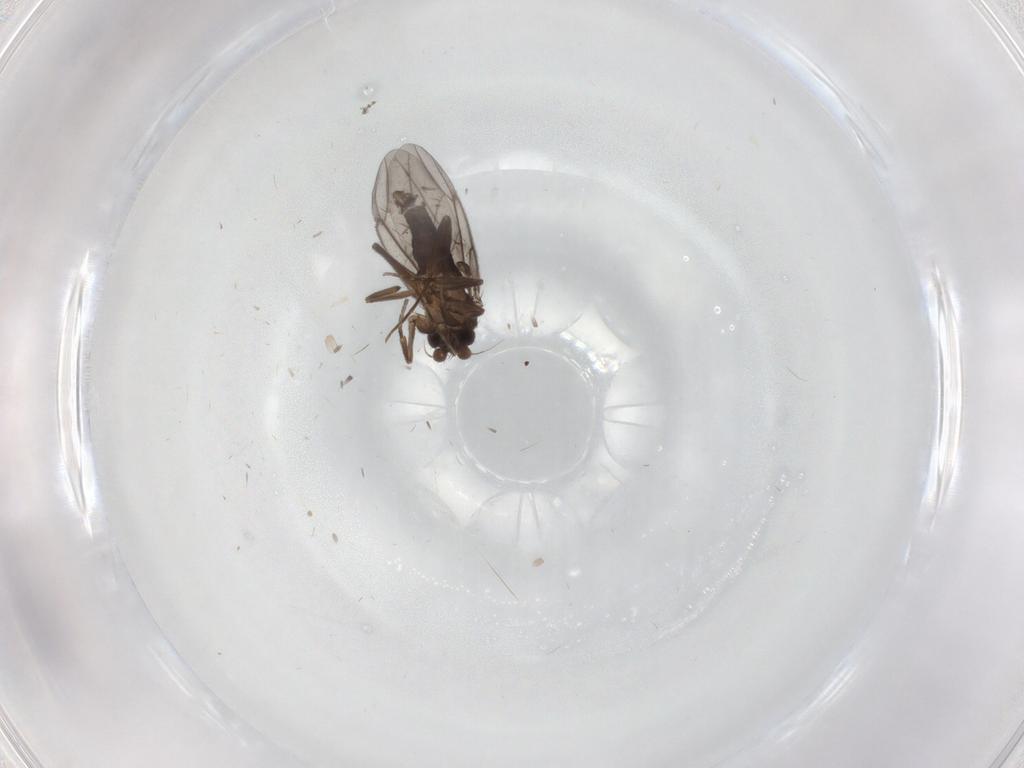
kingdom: Animalia
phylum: Arthropoda
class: Insecta
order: Diptera
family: Psychodidae
